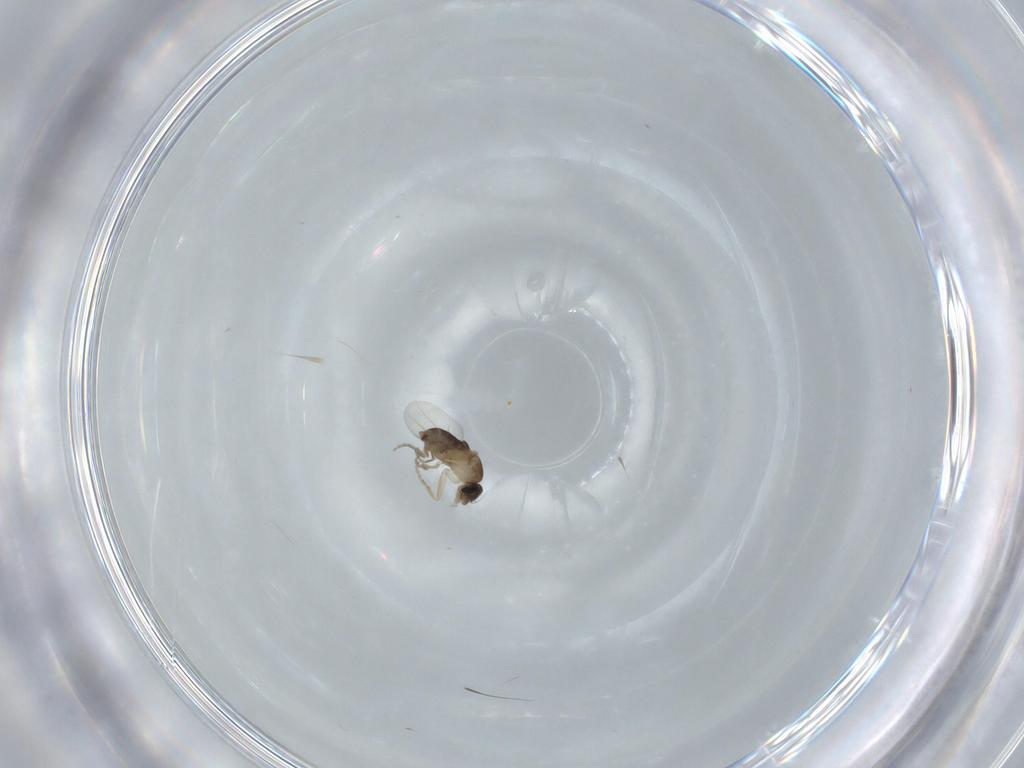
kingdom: Animalia
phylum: Arthropoda
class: Insecta
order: Diptera
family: Phoridae
